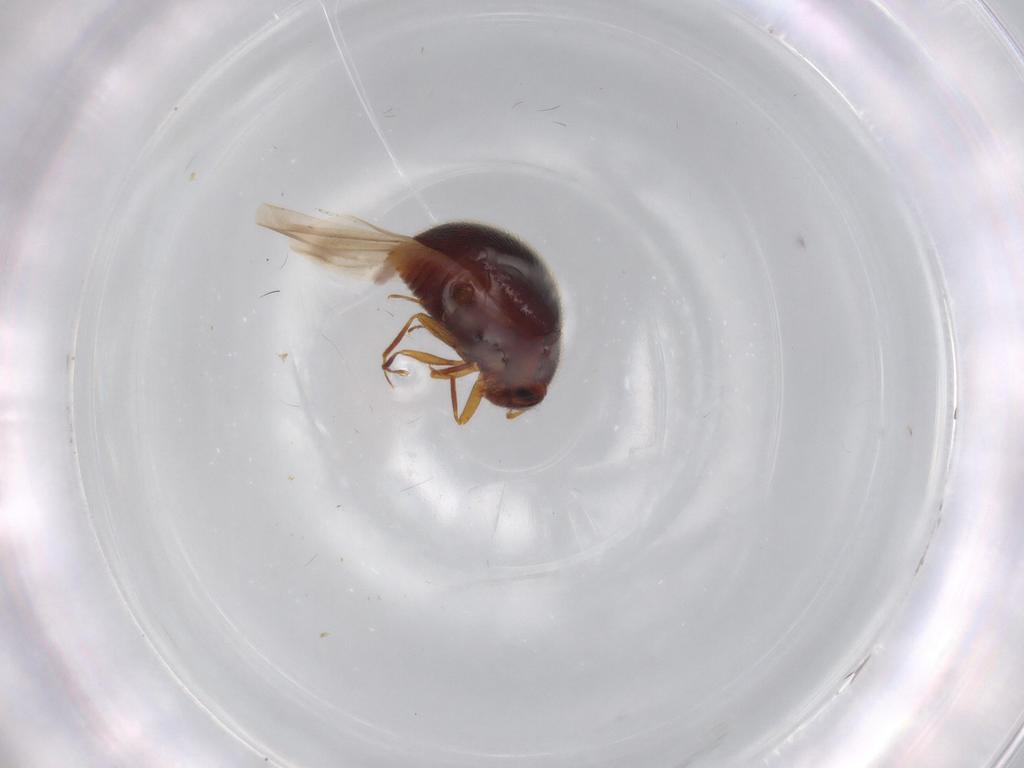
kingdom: Animalia
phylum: Arthropoda
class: Insecta
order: Coleoptera
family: Anamorphidae
